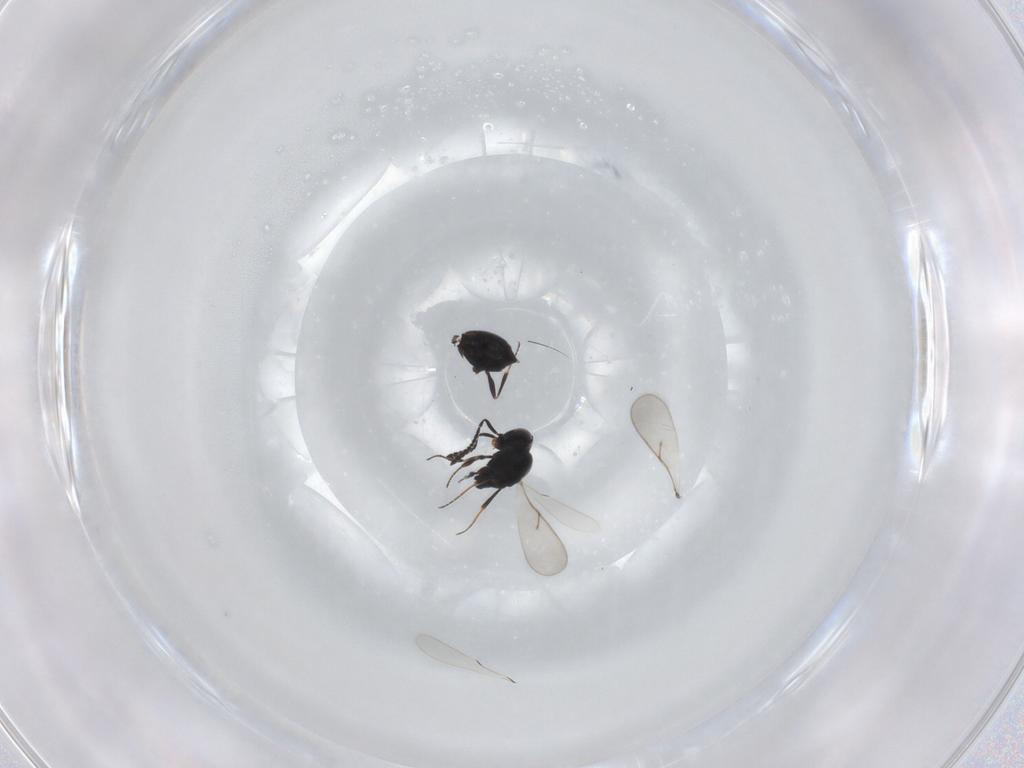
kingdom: Animalia
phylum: Arthropoda
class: Insecta
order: Hymenoptera
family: Scelionidae
